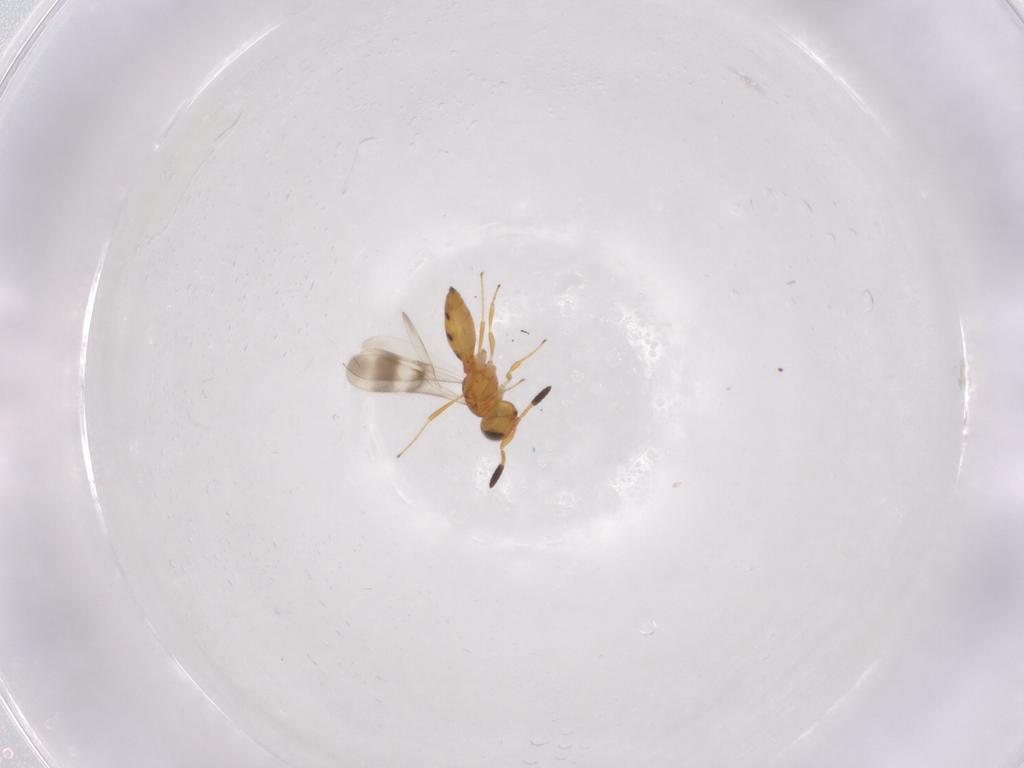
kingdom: Animalia
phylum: Arthropoda
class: Insecta
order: Hymenoptera
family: Scelionidae
